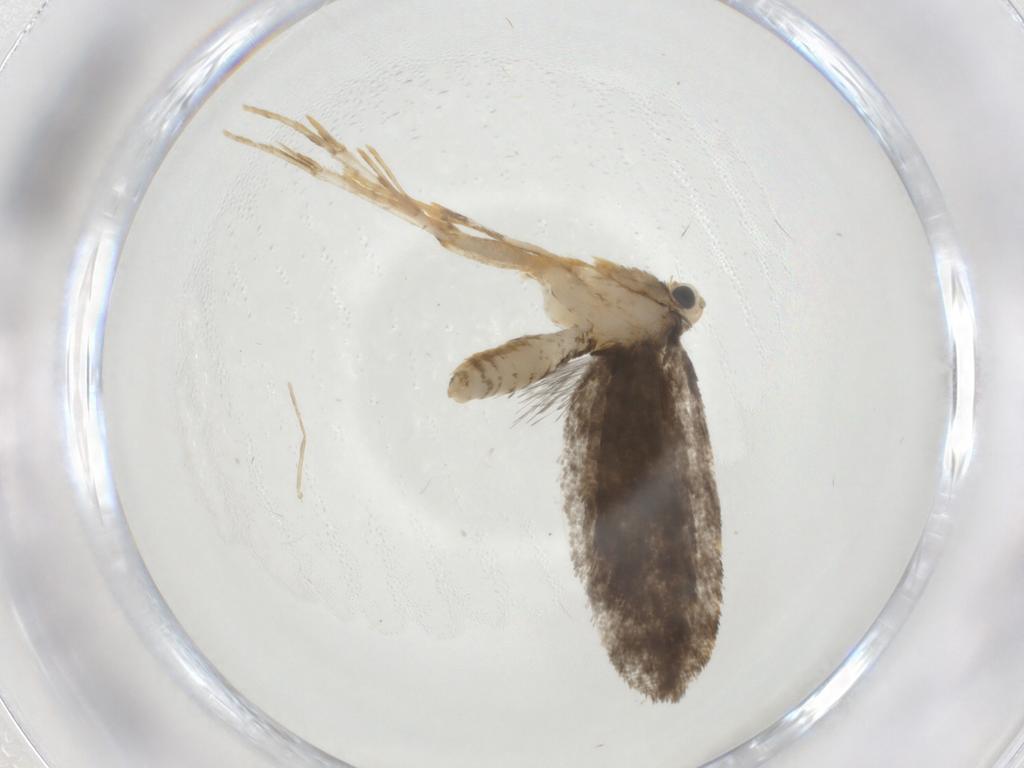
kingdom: Animalia
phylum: Arthropoda
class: Insecta
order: Lepidoptera
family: Psychidae
